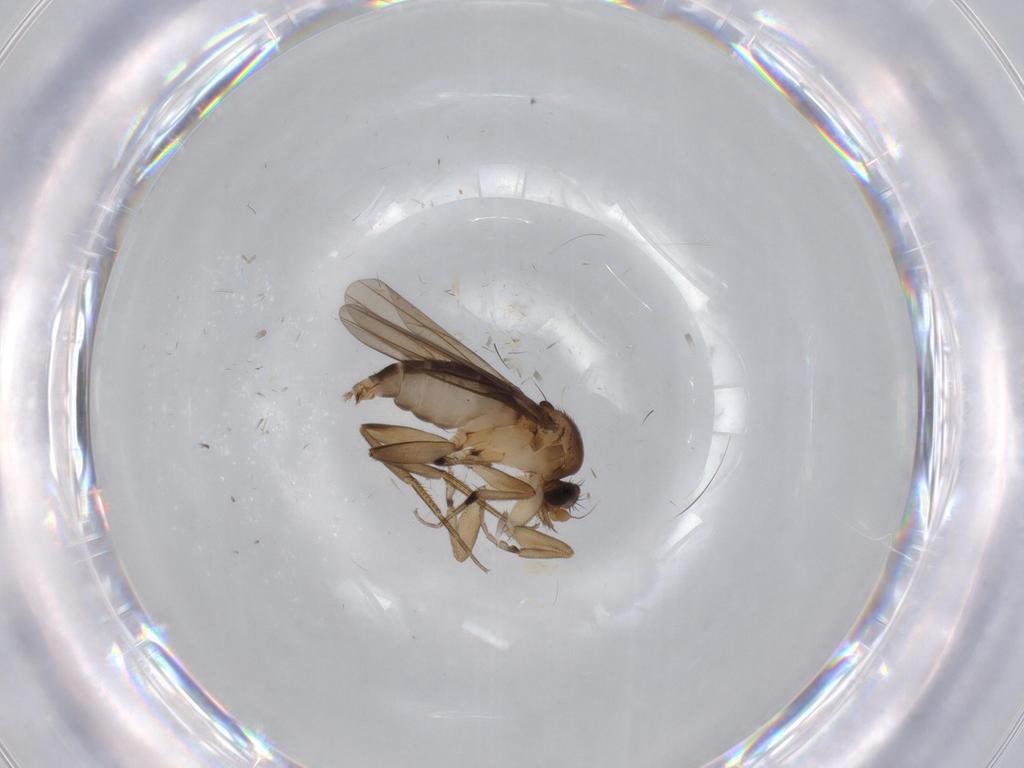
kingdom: Animalia
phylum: Arthropoda
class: Insecta
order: Diptera
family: Phoridae
